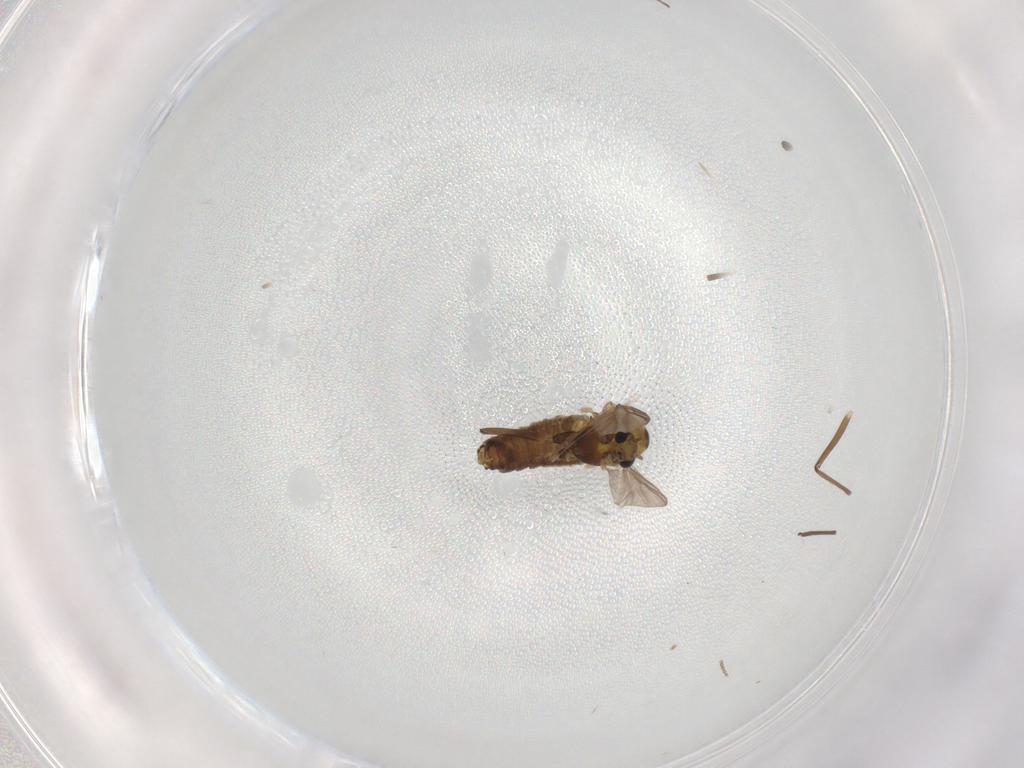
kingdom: Animalia
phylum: Arthropoda
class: Insecta
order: Diptera
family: Chironomidae
